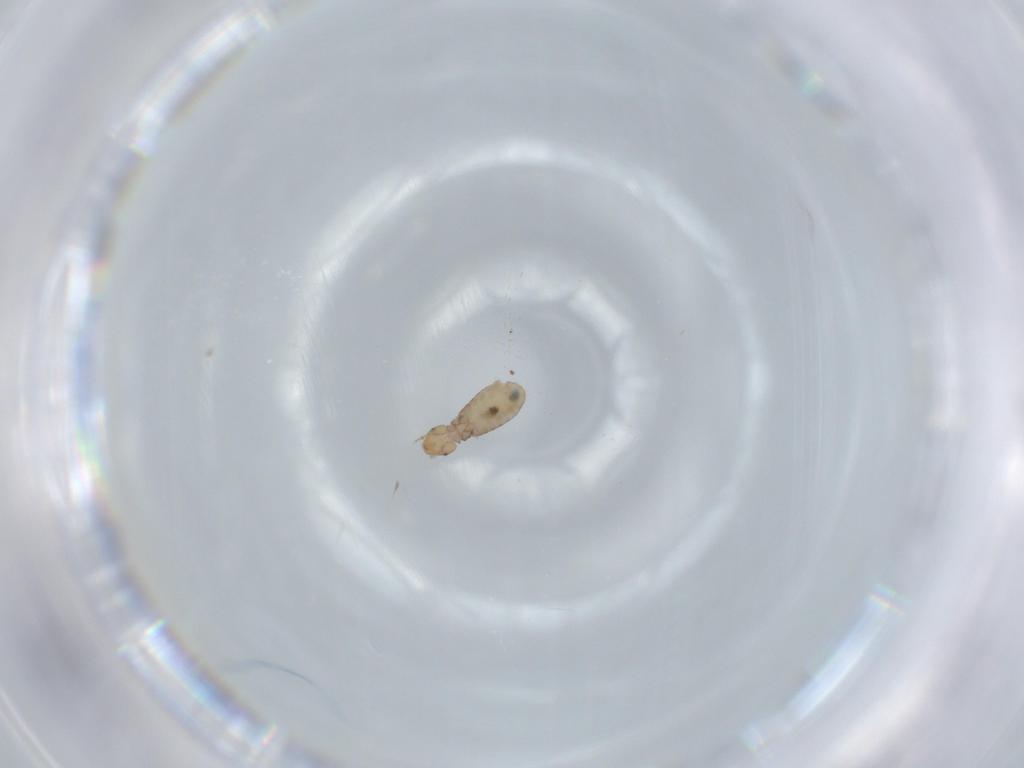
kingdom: Animalia
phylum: Arthropoda
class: Insecta
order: Psocodea
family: Liposcelididae
